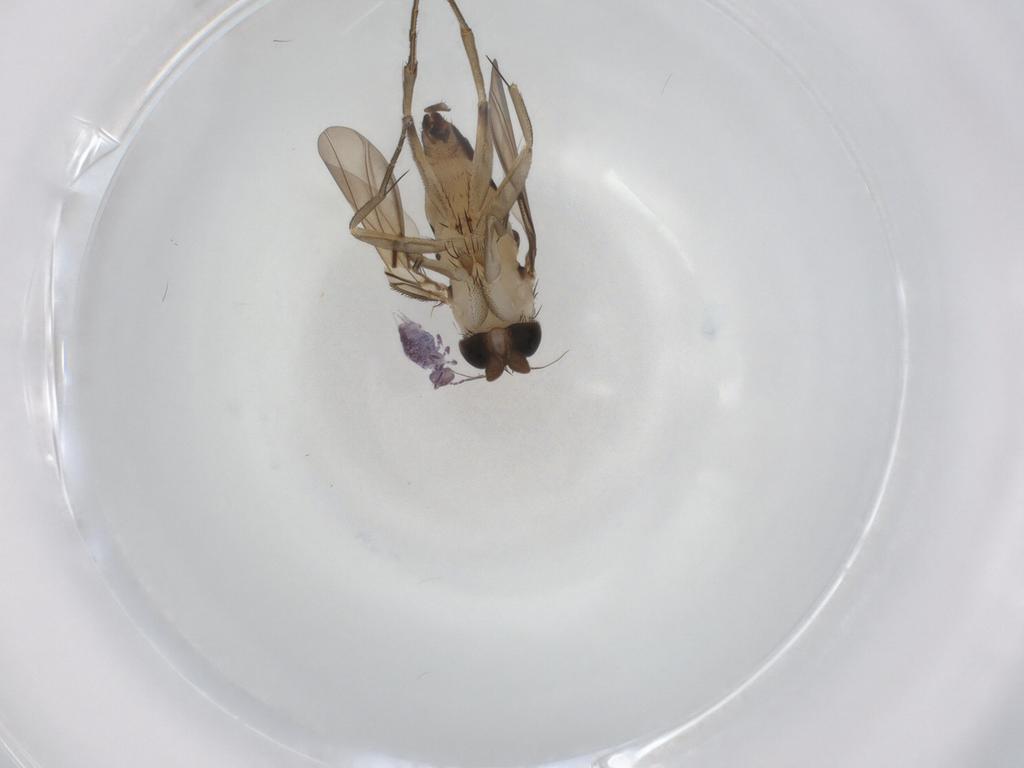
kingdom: Animalia
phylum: Arthropoda
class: Insecta
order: Diptera
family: Phoridae
